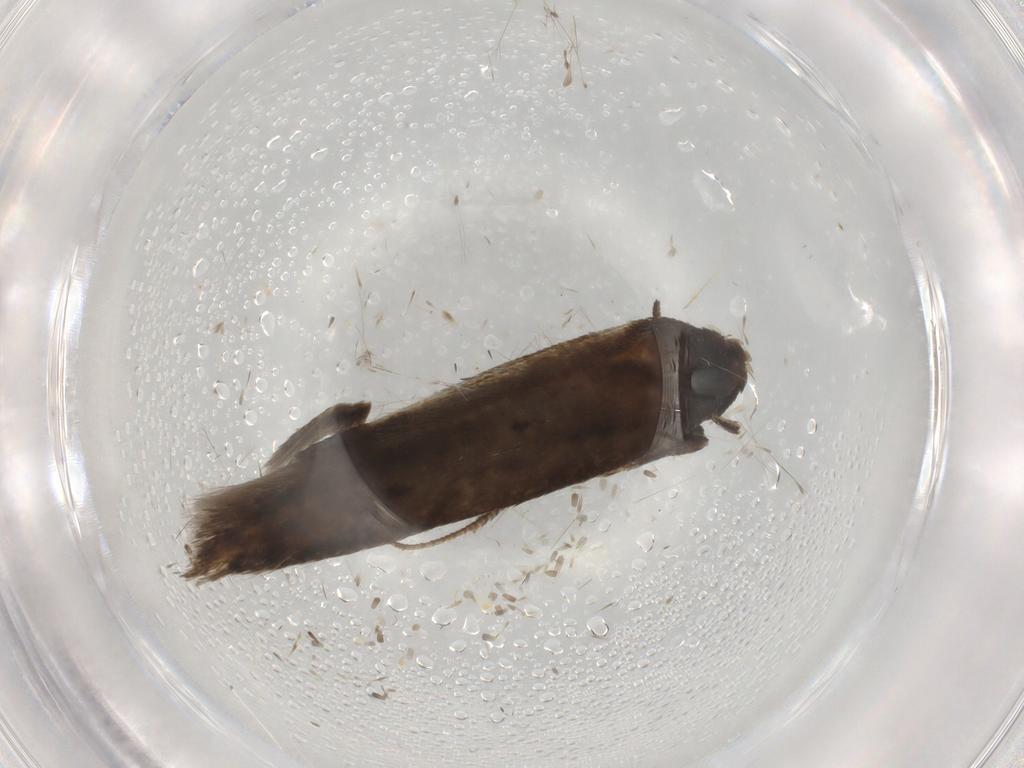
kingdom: Animalia
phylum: Arthropoda
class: Insecta
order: Lepidoptera
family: Cosmopterigidae
